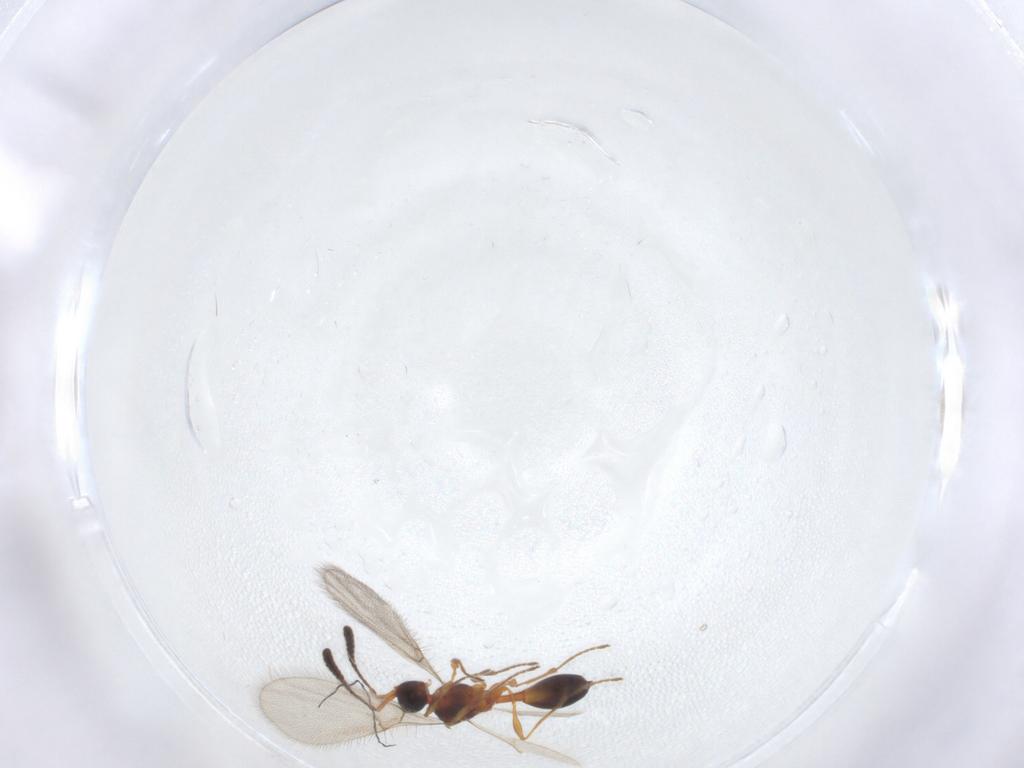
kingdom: Animalia
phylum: Arthropoda
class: Insecta
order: Hymenoptera
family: Diapriidae
